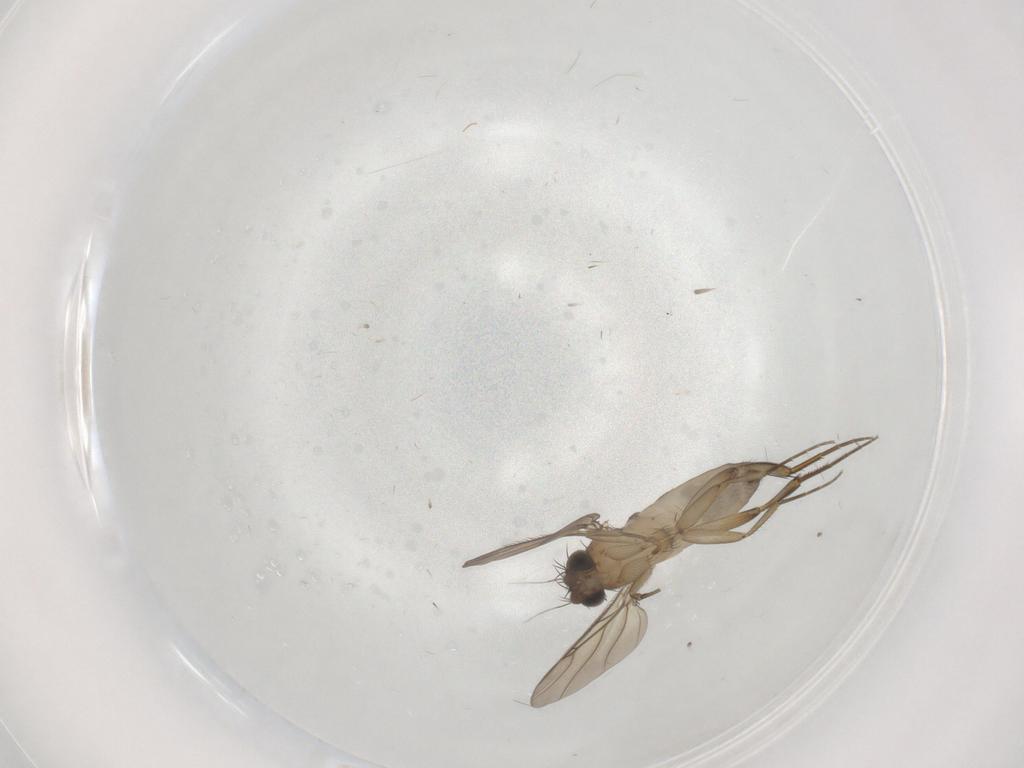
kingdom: Animalia
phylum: Arthropoda
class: Insecta
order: Diptera
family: Phoridae
